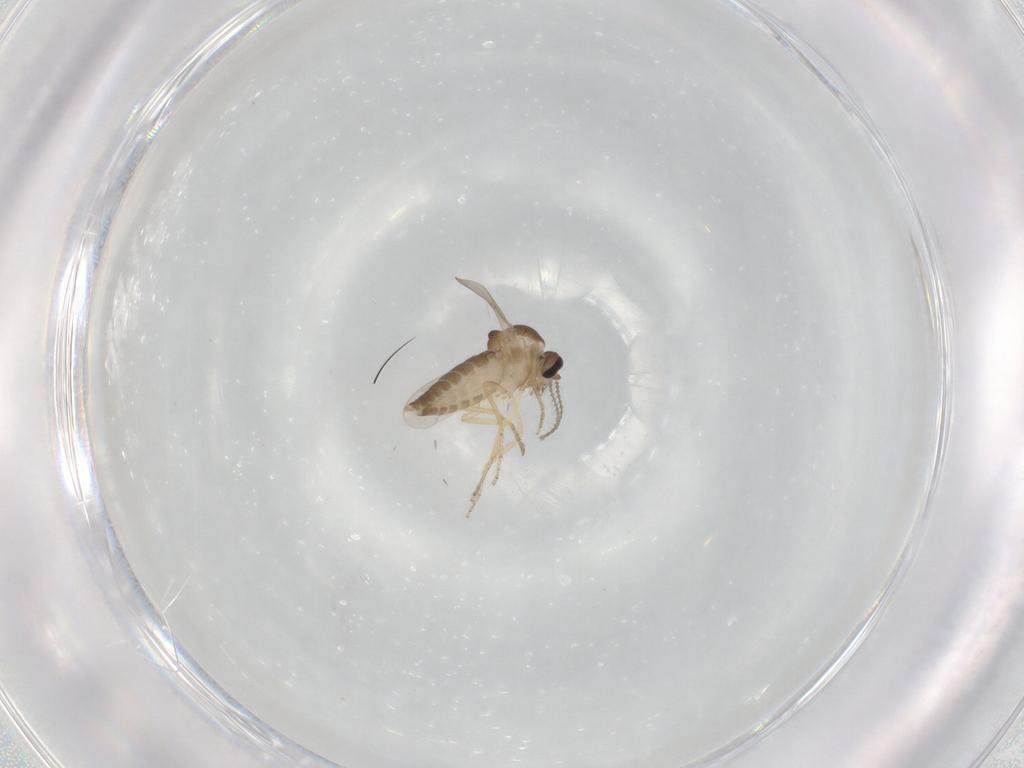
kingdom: Animalia
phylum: Arthropoda
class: Insecta
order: Diptera
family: Ceratopogonidae
